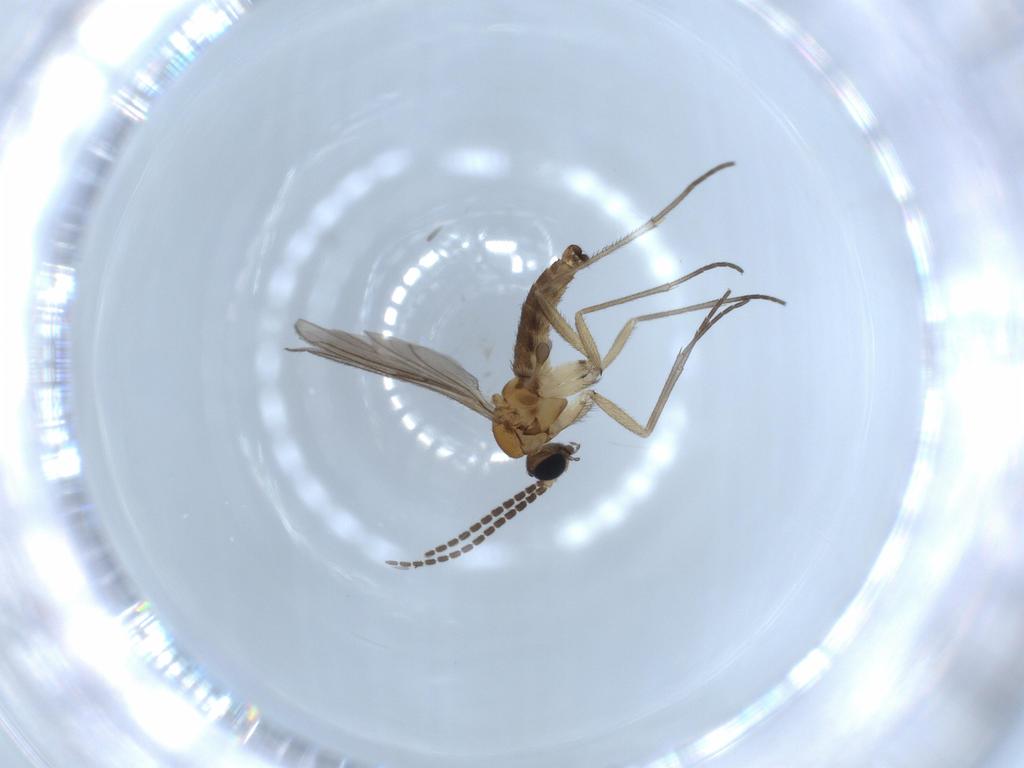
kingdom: Animalia
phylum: Arthropoda
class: Insecta
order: Diptera
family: Sciaridae
